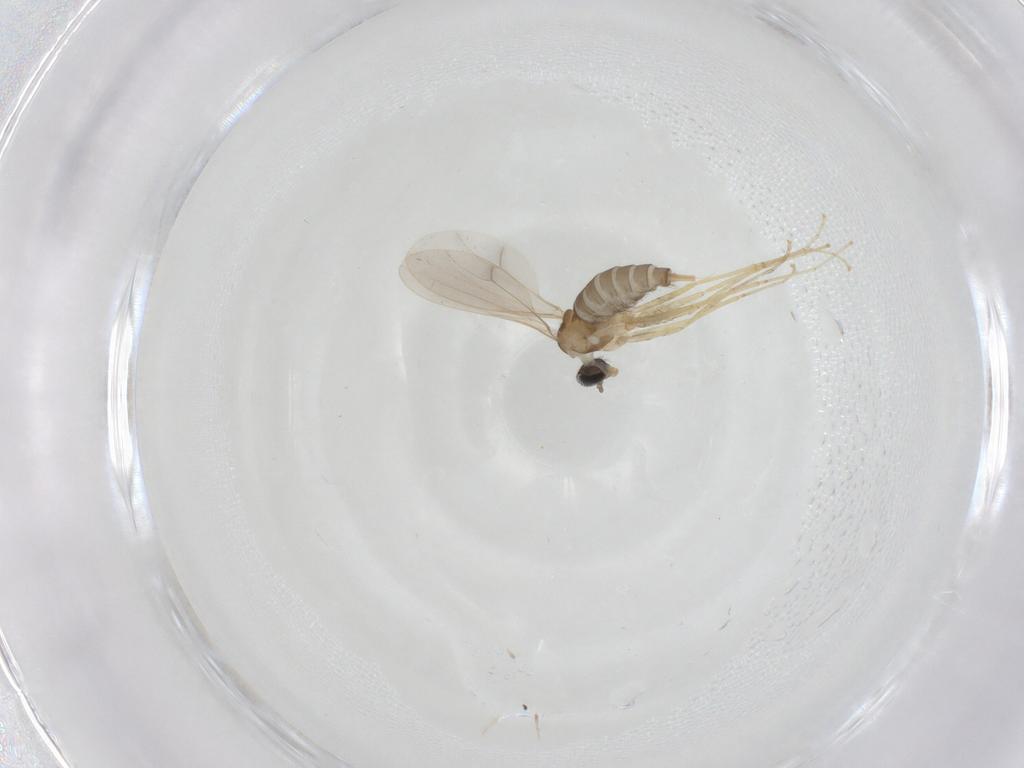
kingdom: Animalia
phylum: Arthropoda
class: Insecta
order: Diptera
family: Cecidomyiidae
